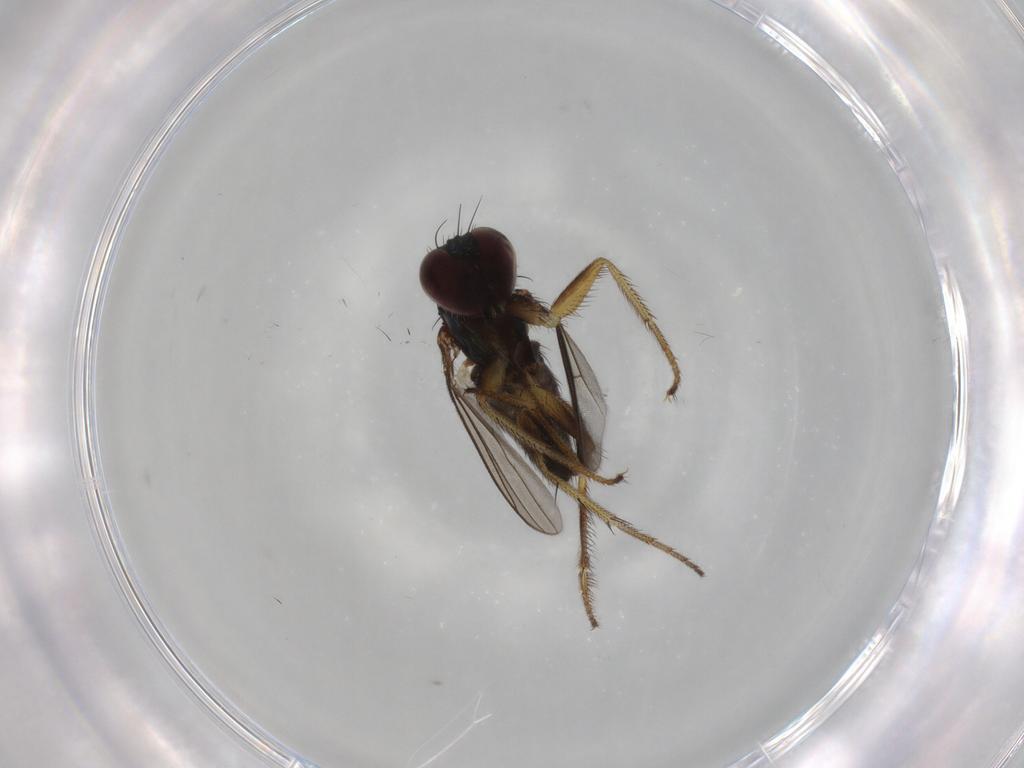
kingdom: Animalia
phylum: Arthropoda
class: Insecta
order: Diptera
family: Dolichopodidae
